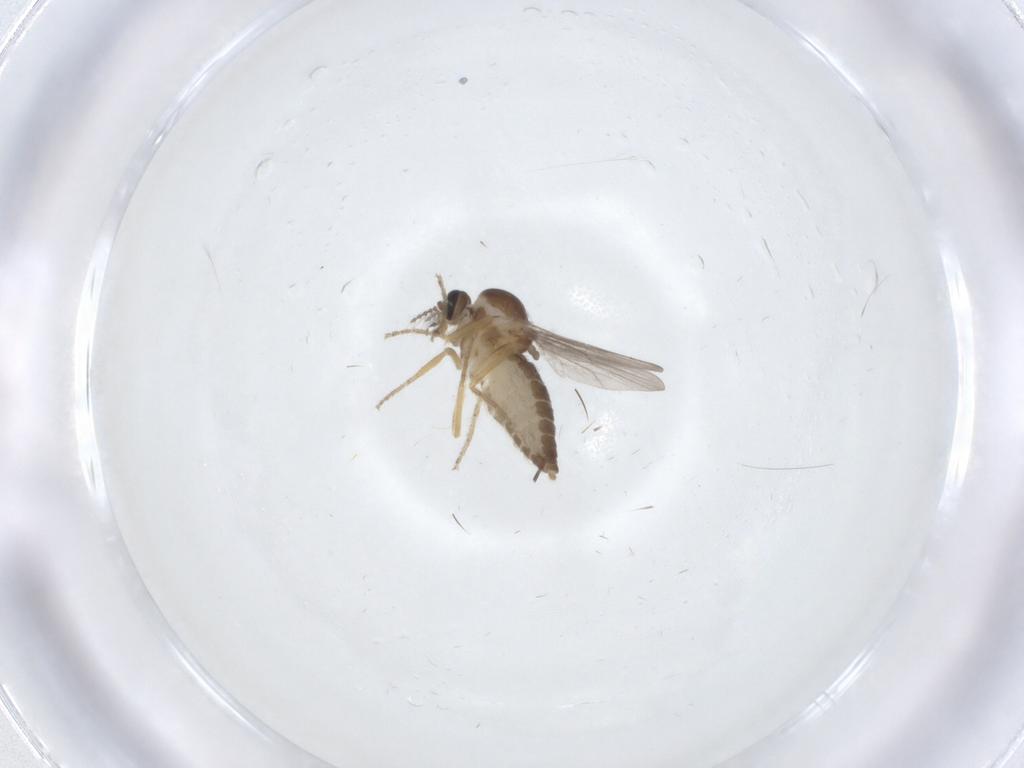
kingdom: Animalia
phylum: Arthropoda
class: Insecta
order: Diptera
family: Ceratopogonidae
